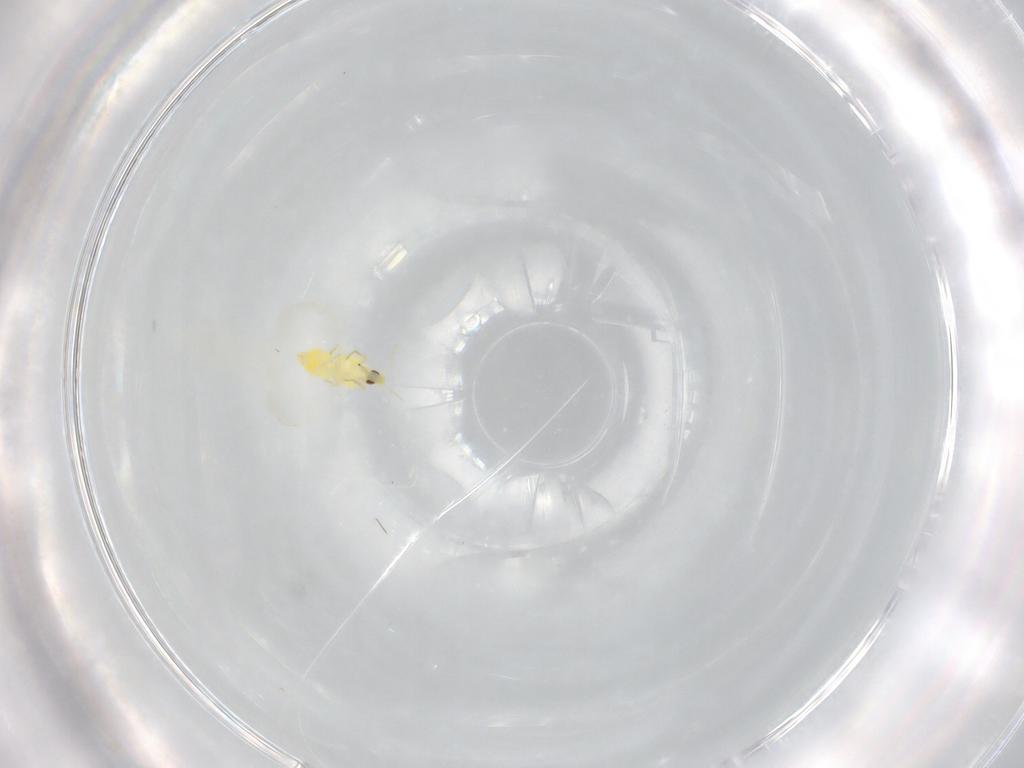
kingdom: Animalia
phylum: Arthropoda
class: Insecta
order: Hemiptera
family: Aleyrodidae
